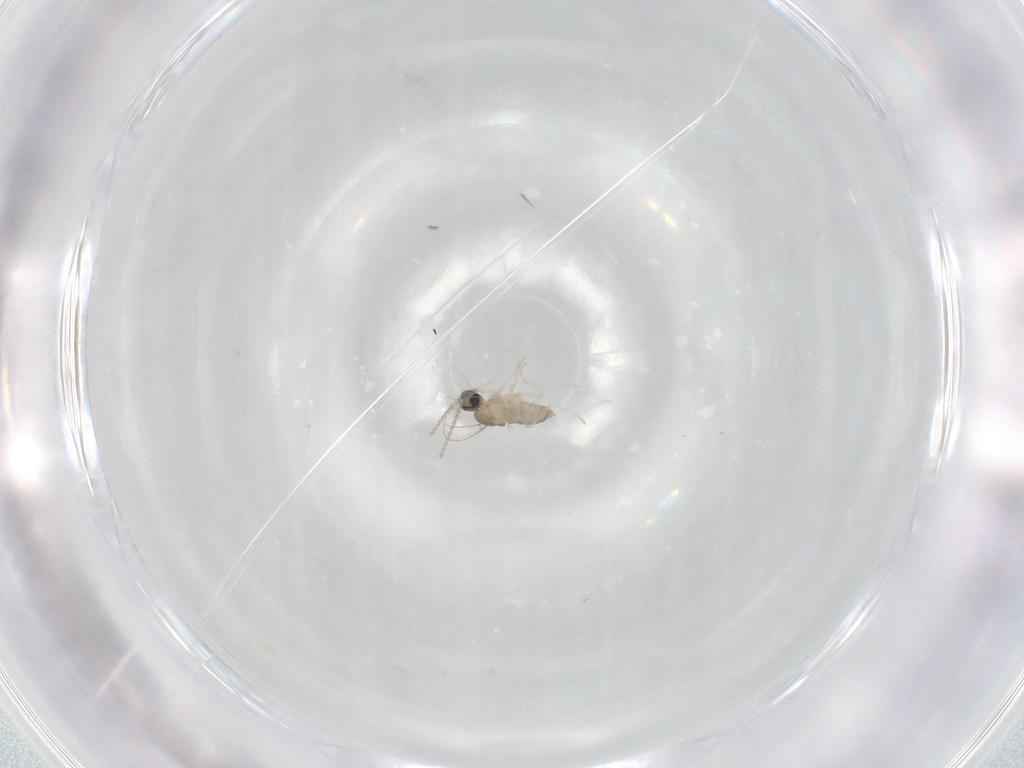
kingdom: Animalia
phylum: Arthropoda
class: Insecta
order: Diptera
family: Cecidomyiidae
